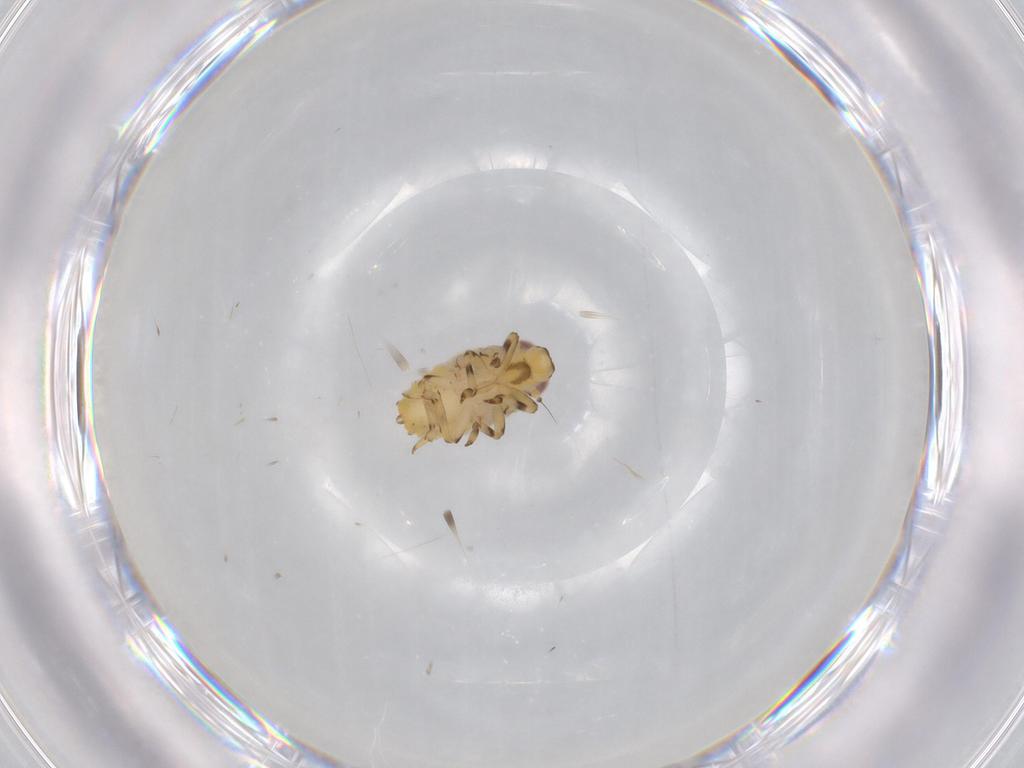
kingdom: Animalia
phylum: Arthropoda
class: Insecta
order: Hemiptera
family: Issidae
